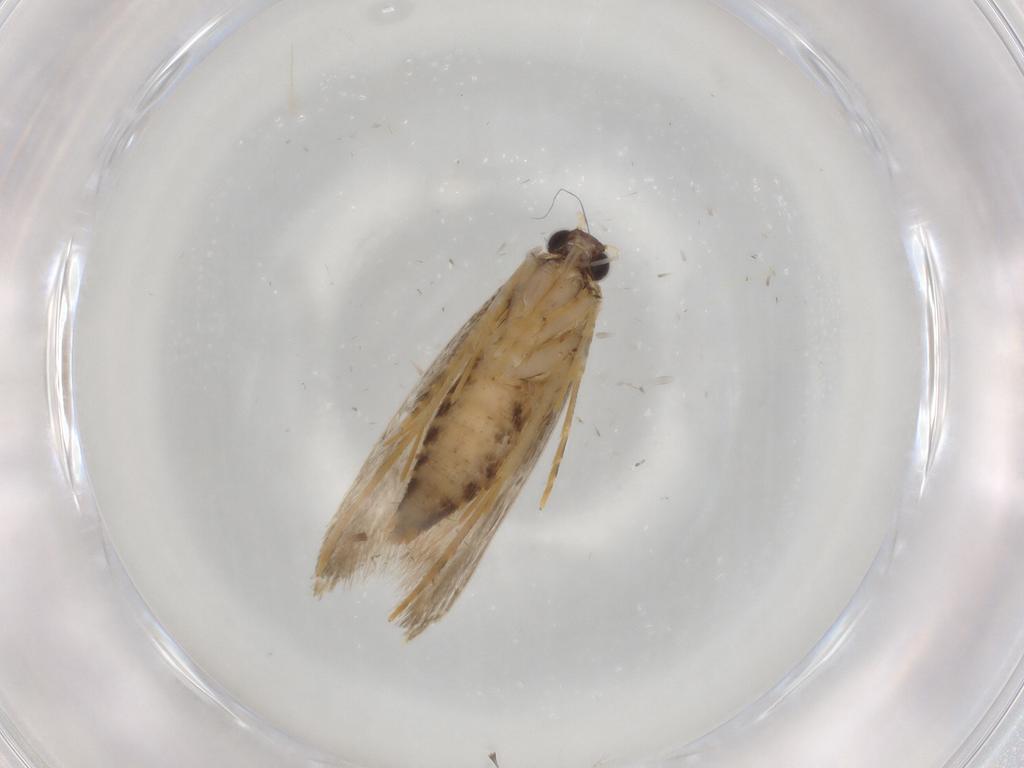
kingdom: Animalia
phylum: Arthropoda
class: Insecta
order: Lepidoptera
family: Tineidae
